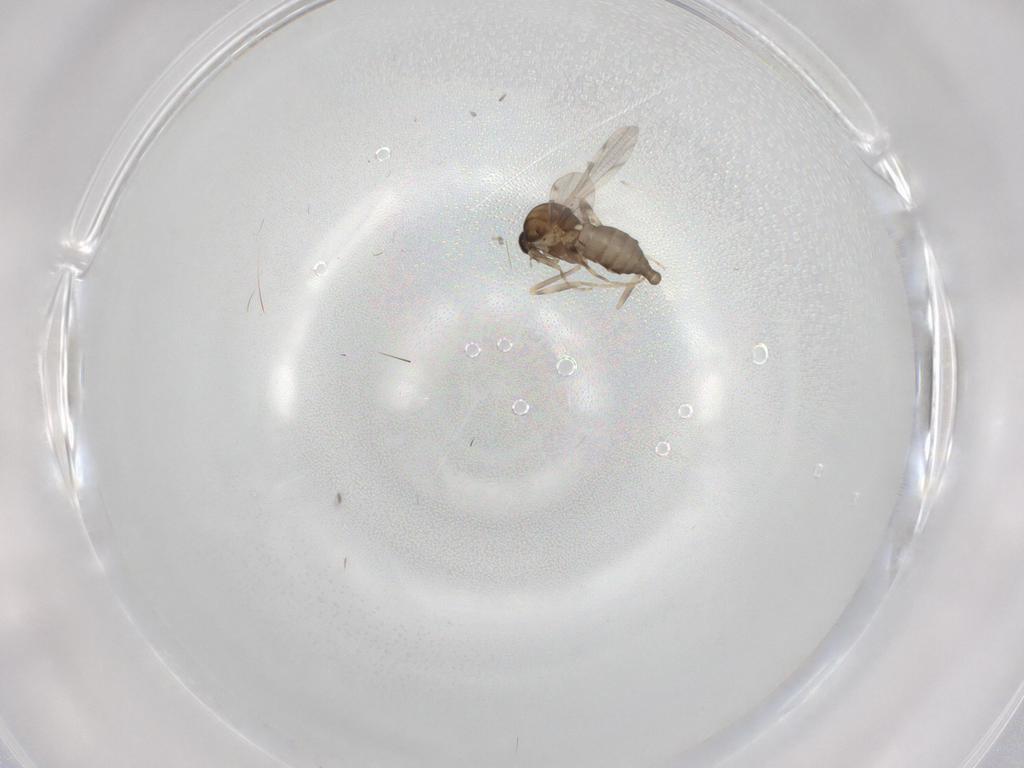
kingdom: Animalia
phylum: Arthropoda
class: Insecta
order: Diptera
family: Ceratopogonidae
